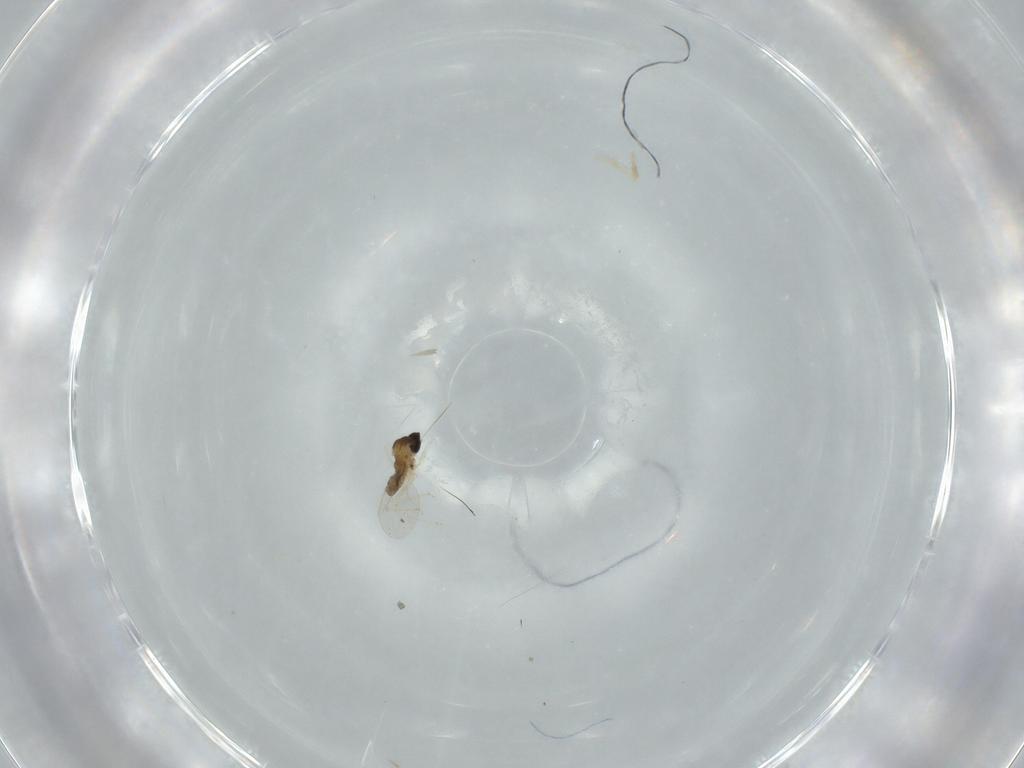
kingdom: Animalia
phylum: Arthropoda
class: Insecta
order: Diptera
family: Cecidomyiidae
